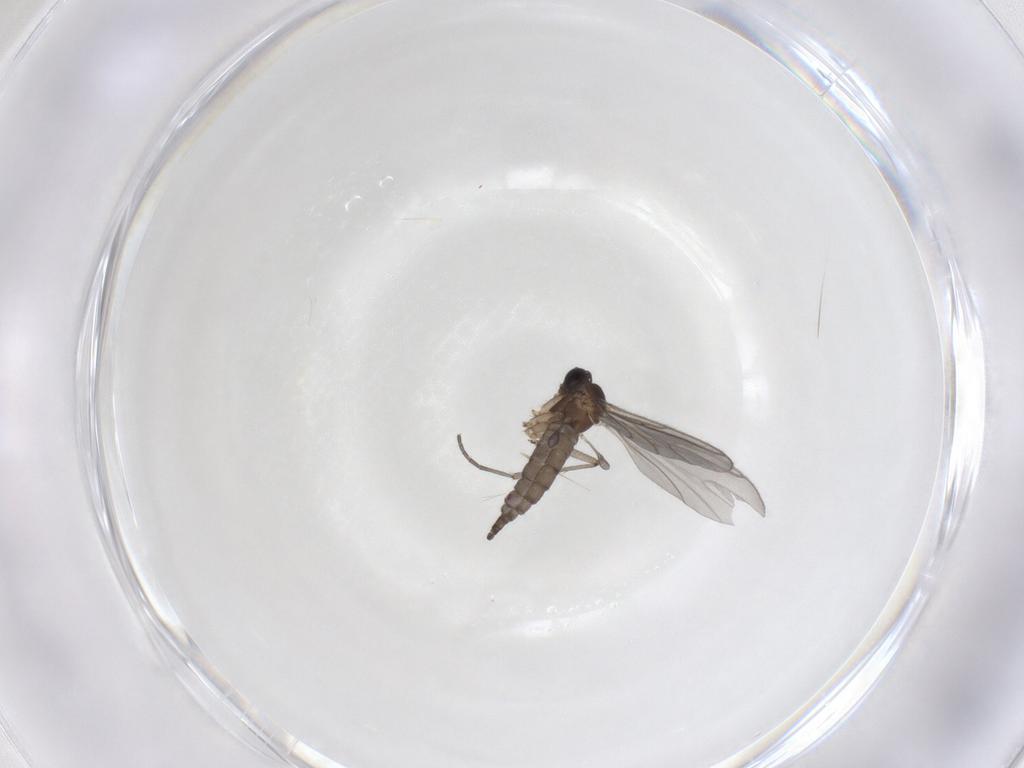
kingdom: Animalia
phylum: Arthropoda
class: Insecta
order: Diptera
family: Sciaridae
